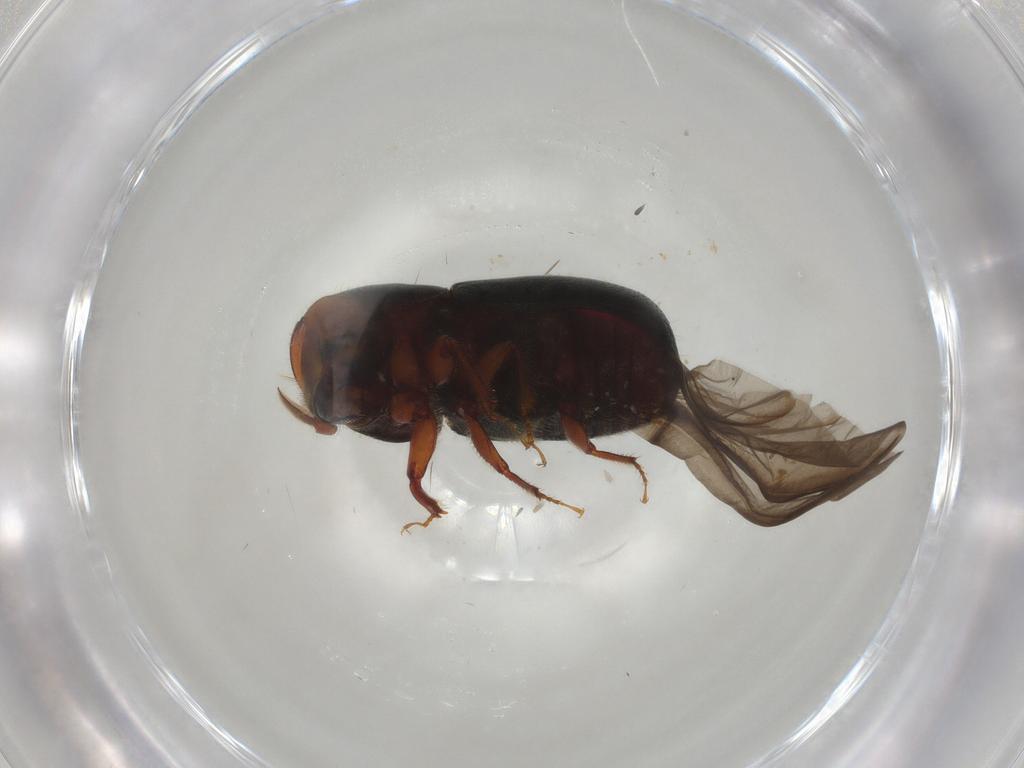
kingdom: Animalia
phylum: Arthropoda
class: Insecta
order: Coleoptera
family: Curculionidae
